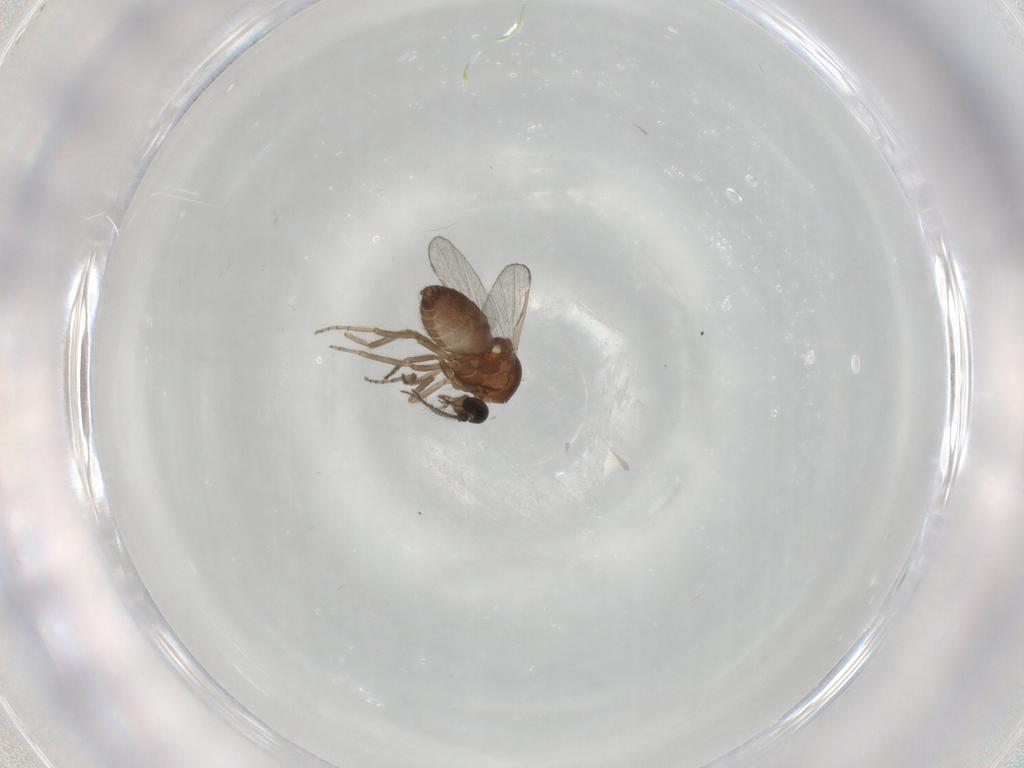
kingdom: Animalia
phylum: Arthropoda
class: Insecta
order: Diptera
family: Ceratopogonidae
